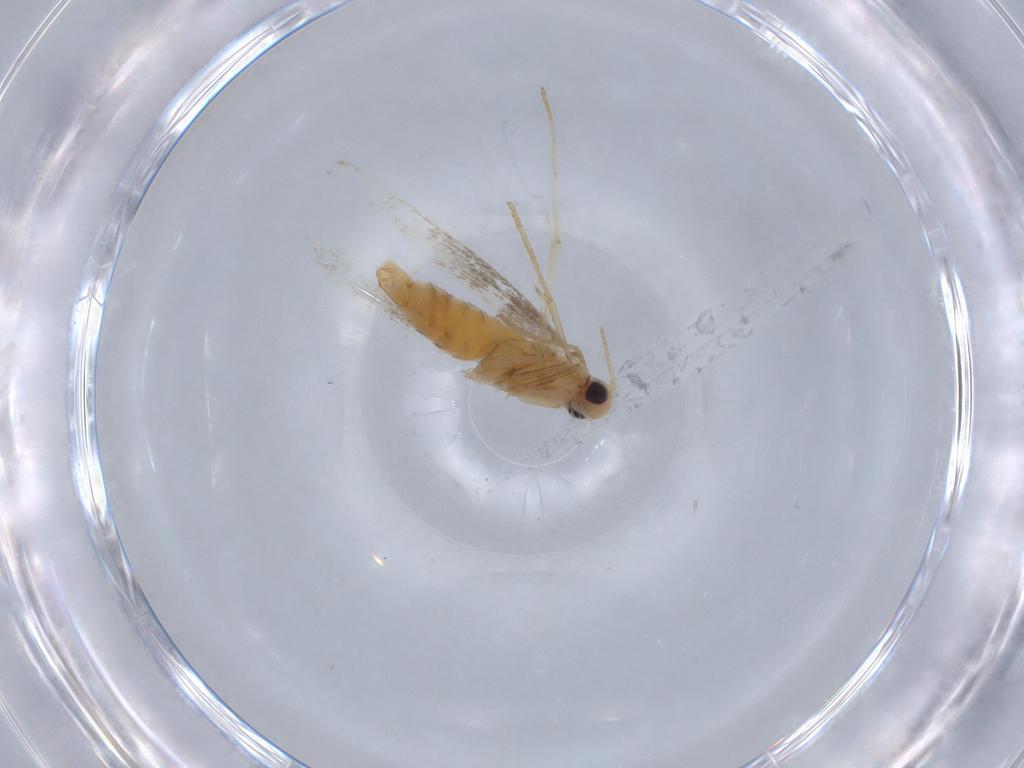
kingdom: Animalia
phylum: Arthropoda
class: Insecta
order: Lepidoptera
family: Gracillariidae
